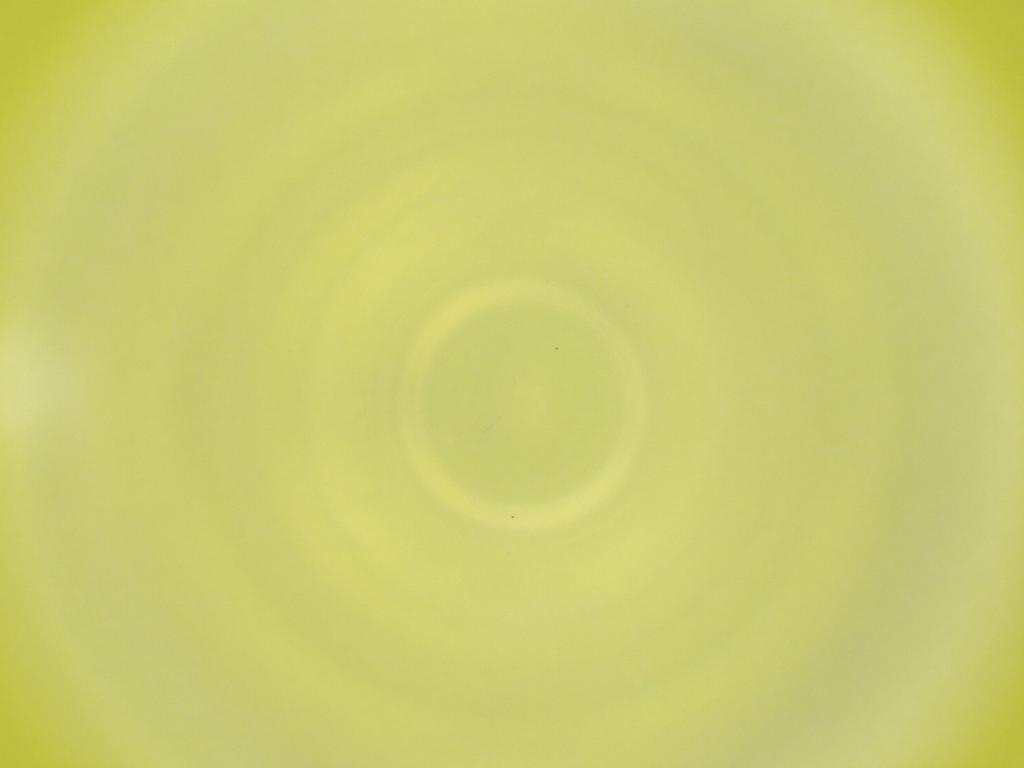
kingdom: Animalia
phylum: Arthropoda
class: Insecta
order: Diptera
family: Cecidomyiidae
